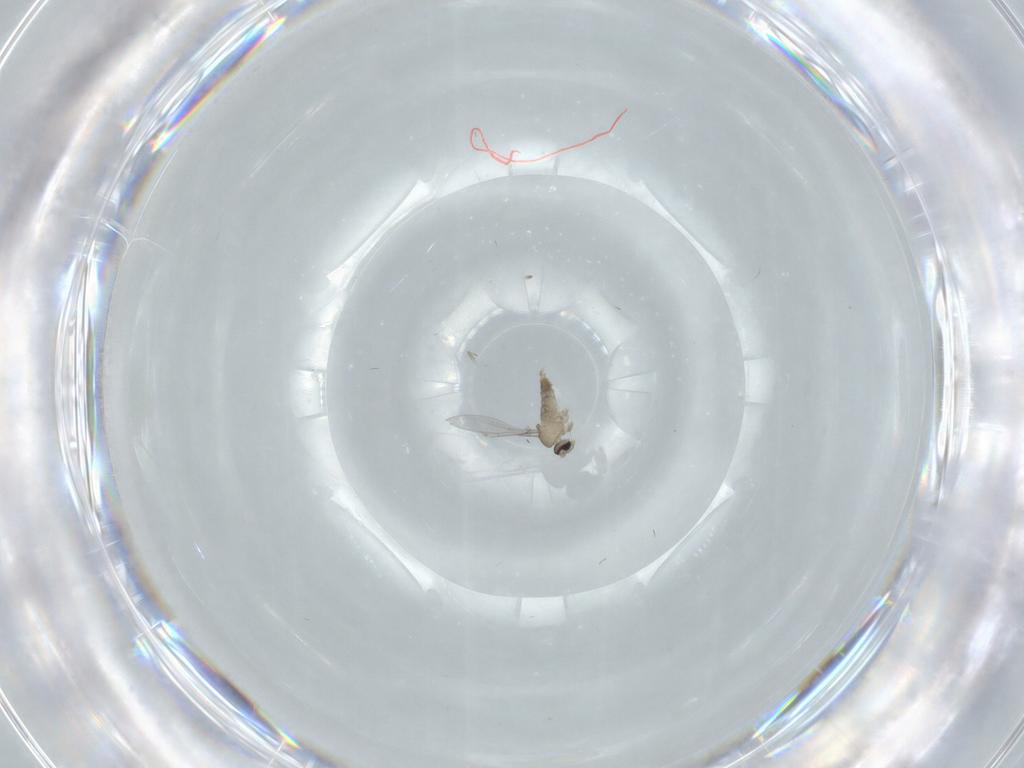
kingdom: Animalia
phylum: Arthropoda
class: Insecta
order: Diptera
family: Cecidomyiidae
